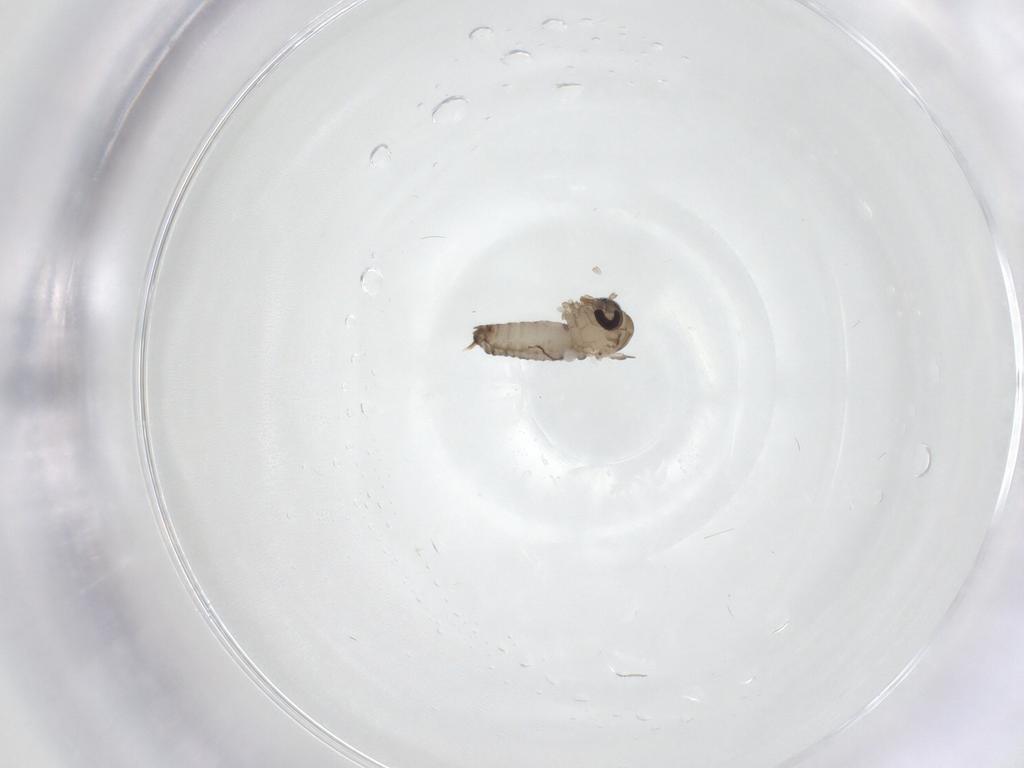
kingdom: Animalia
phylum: Arthropoda
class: Insecta
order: Diptera
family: Psychodidae
